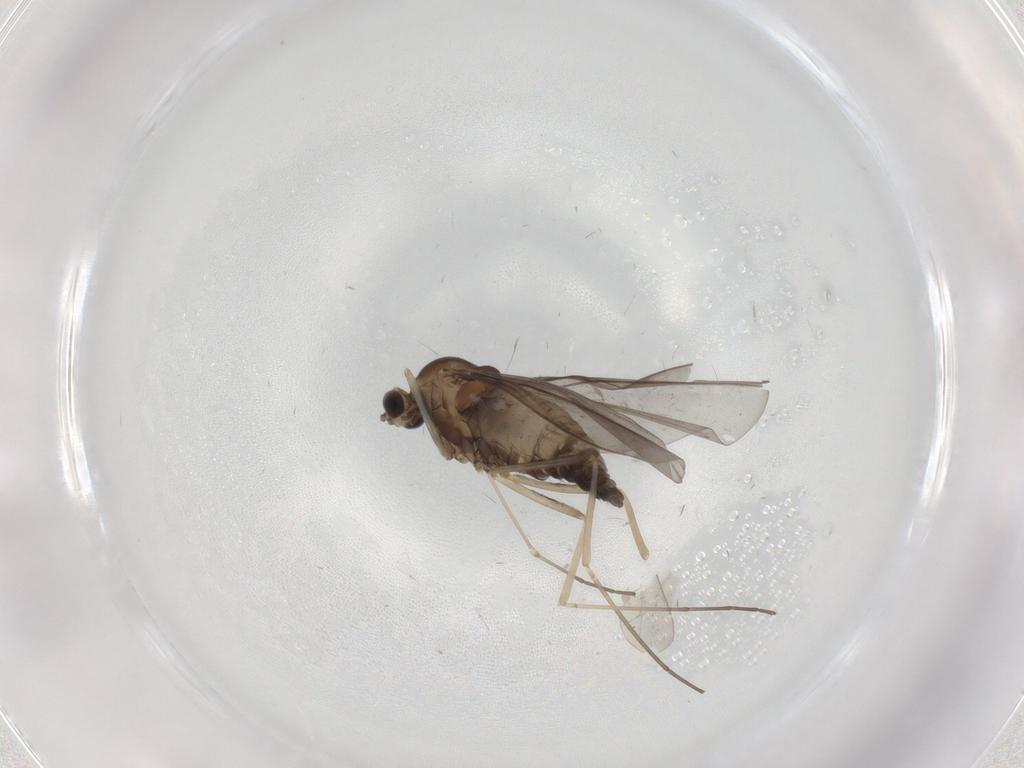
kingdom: Animalia
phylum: Arthropoda
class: Insecta
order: Diptera
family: Cecidomyiidae
